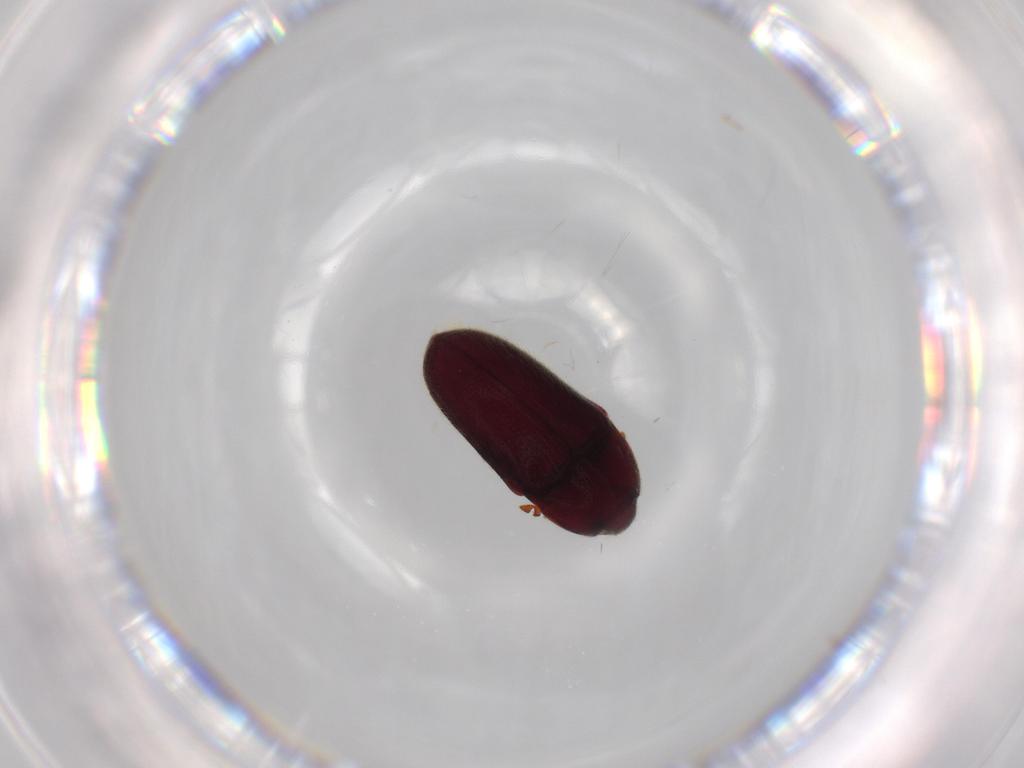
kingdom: Animalia
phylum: Arthropoda
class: Insecta
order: Coleoptera
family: Throscidae
